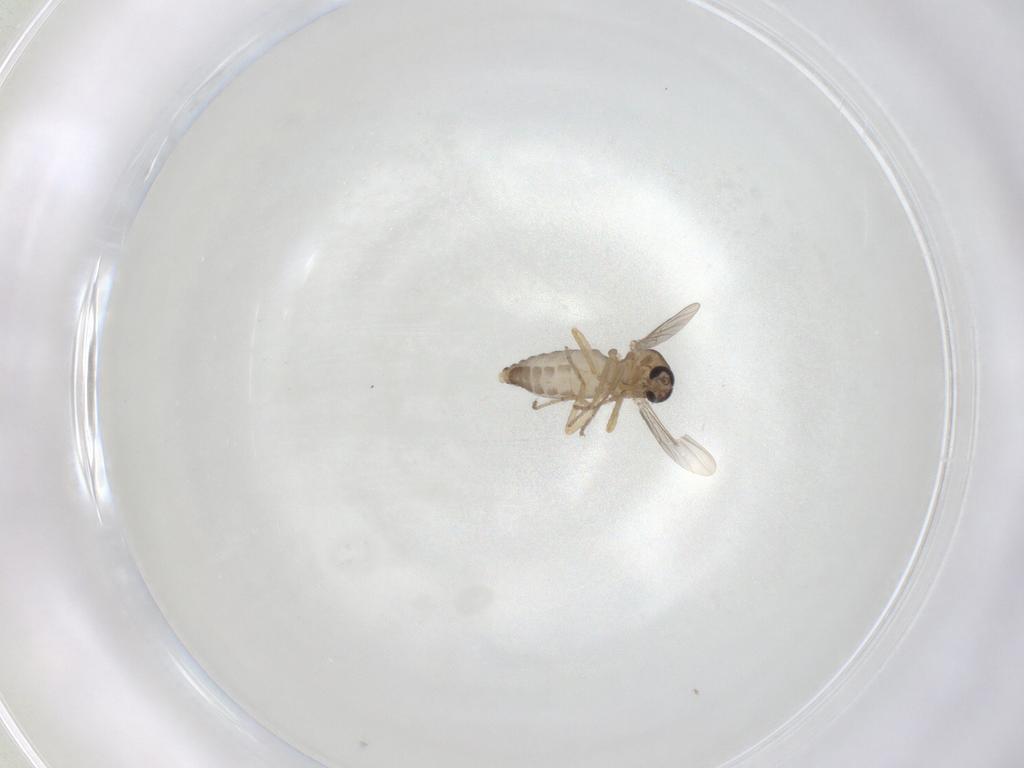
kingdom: Animalia
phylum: Arthropoda
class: Insecta
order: Diptera
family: Ceratopogonidae
